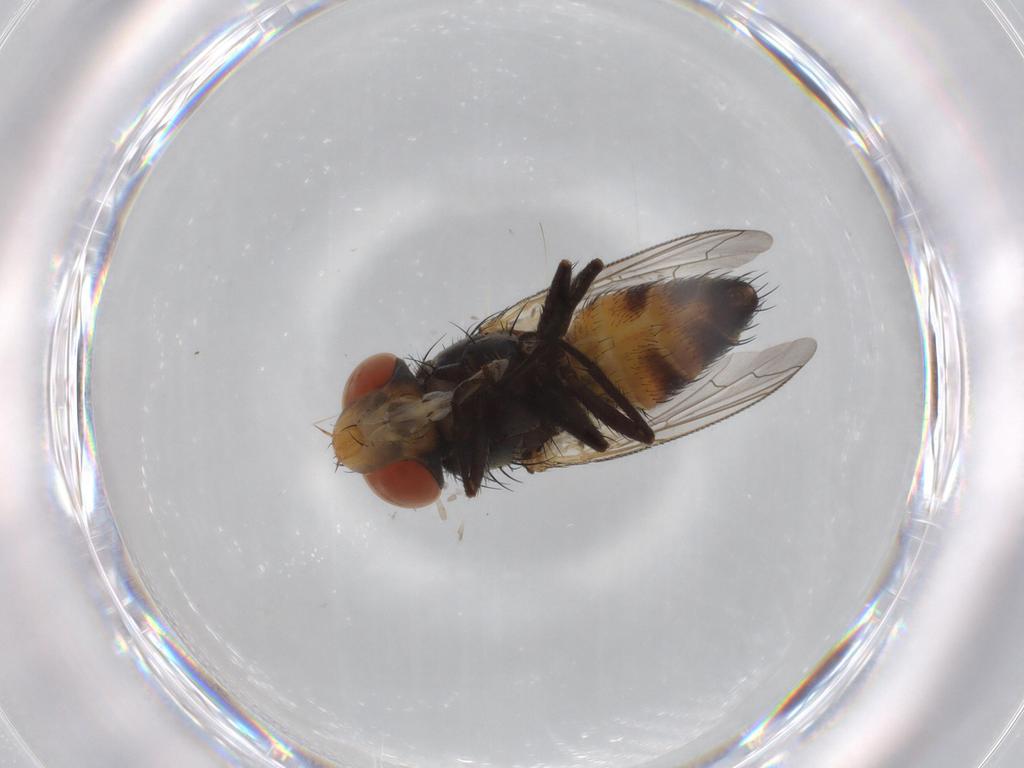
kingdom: Animalia
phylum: Arthropoda
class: Insecta
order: Diptera
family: Sarcophagidae
